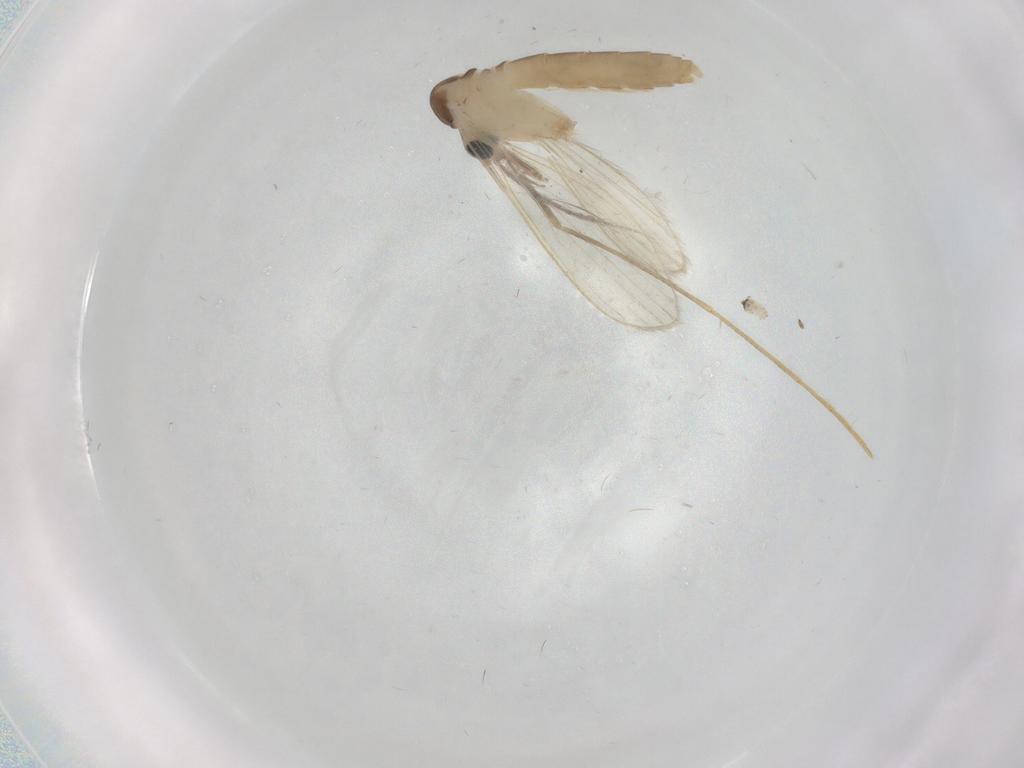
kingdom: Animalia
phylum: Arthropoda
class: Insecta
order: Diptera
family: Psychodidae
